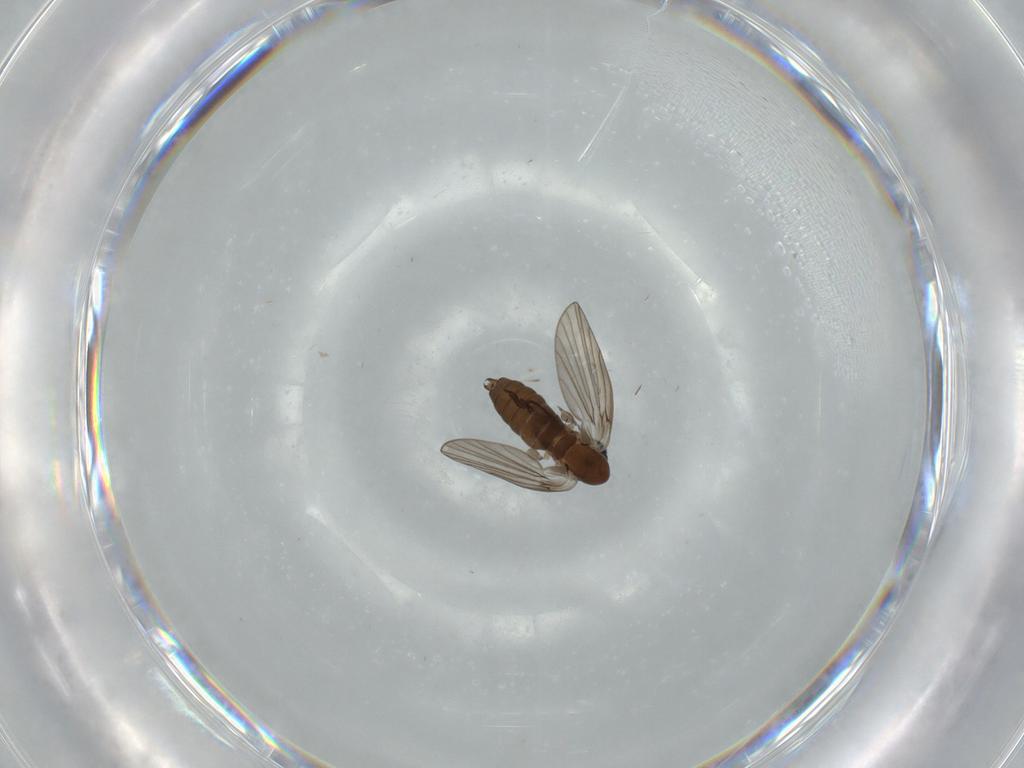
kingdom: Animalia
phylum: Arthropoda
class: Insecta
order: Diptera
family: Psychodidae
